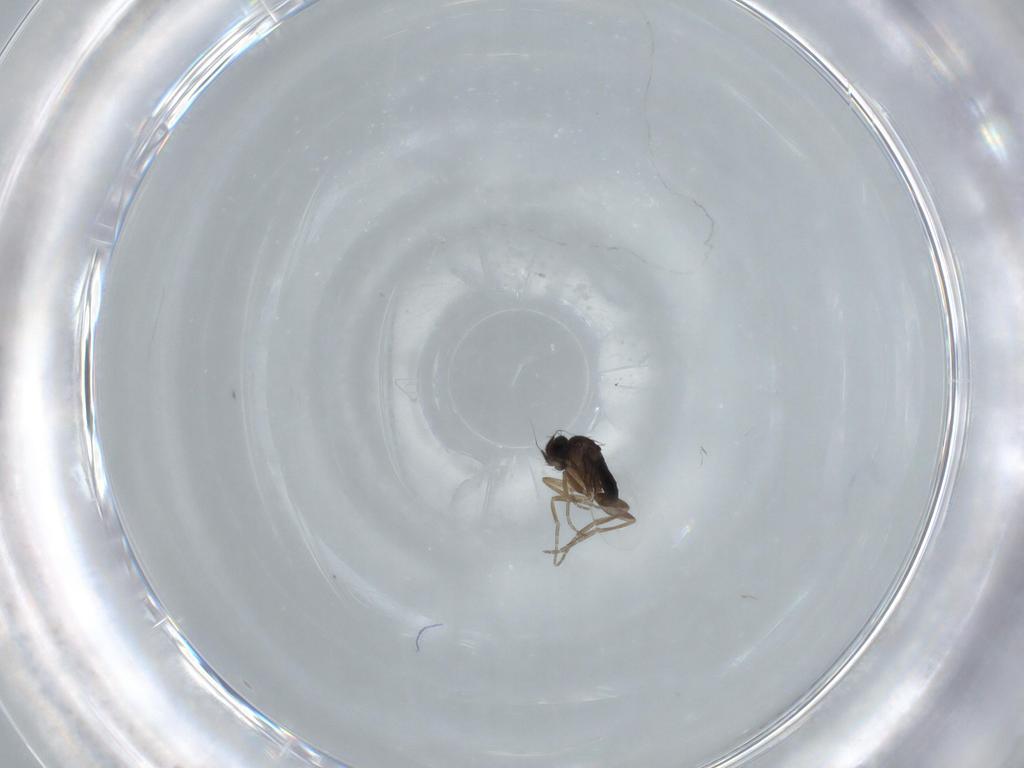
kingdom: Animalia
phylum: Arthropoda
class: Insecta
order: Diptera
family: Phoridae
